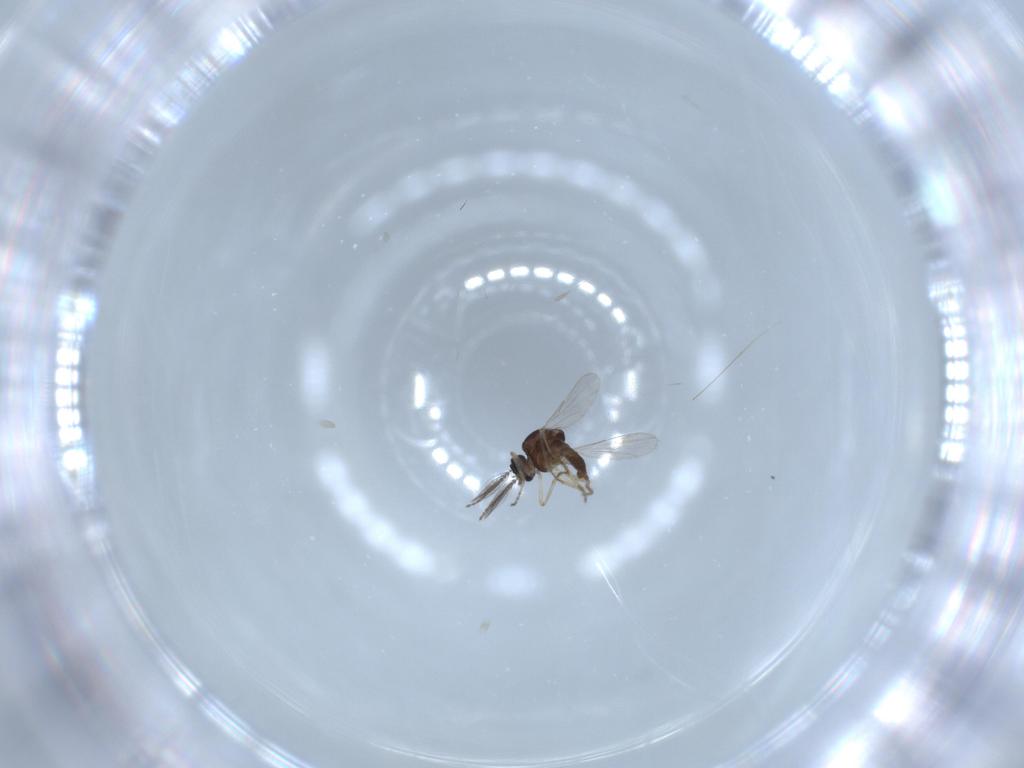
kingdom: Animalia
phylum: Arthropoda
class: Insecta
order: Diptera
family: Ceratopogonidae
